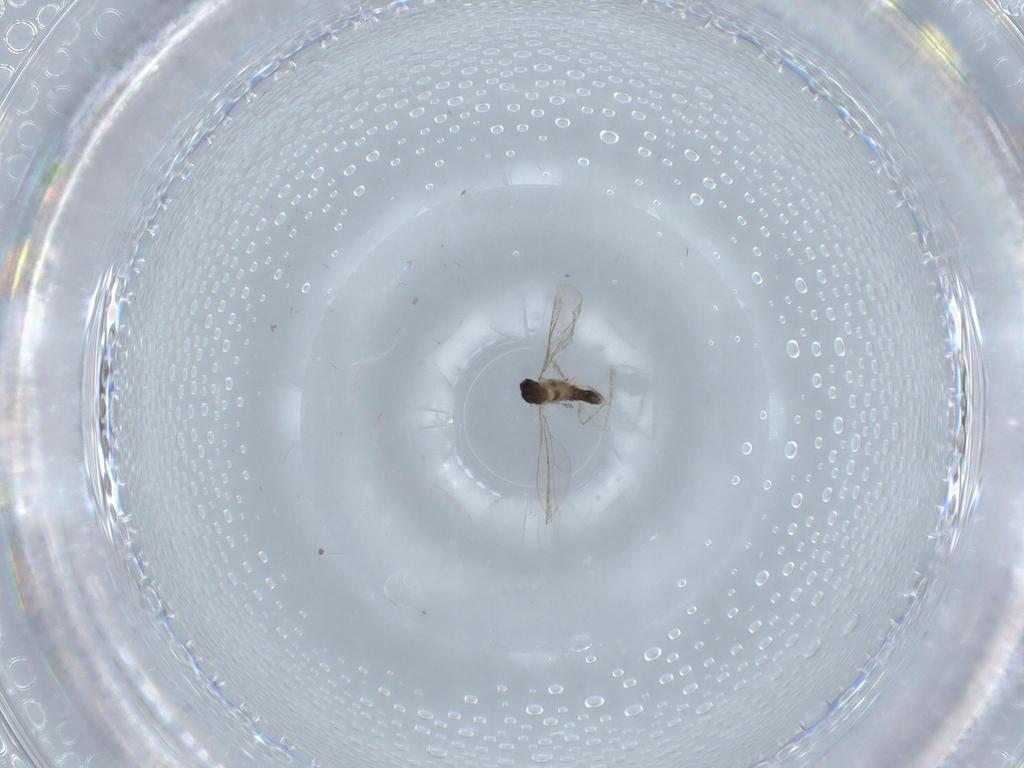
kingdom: Animalia
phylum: Arthropoda
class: Insecta
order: Diptera
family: Cecidomyiidae
